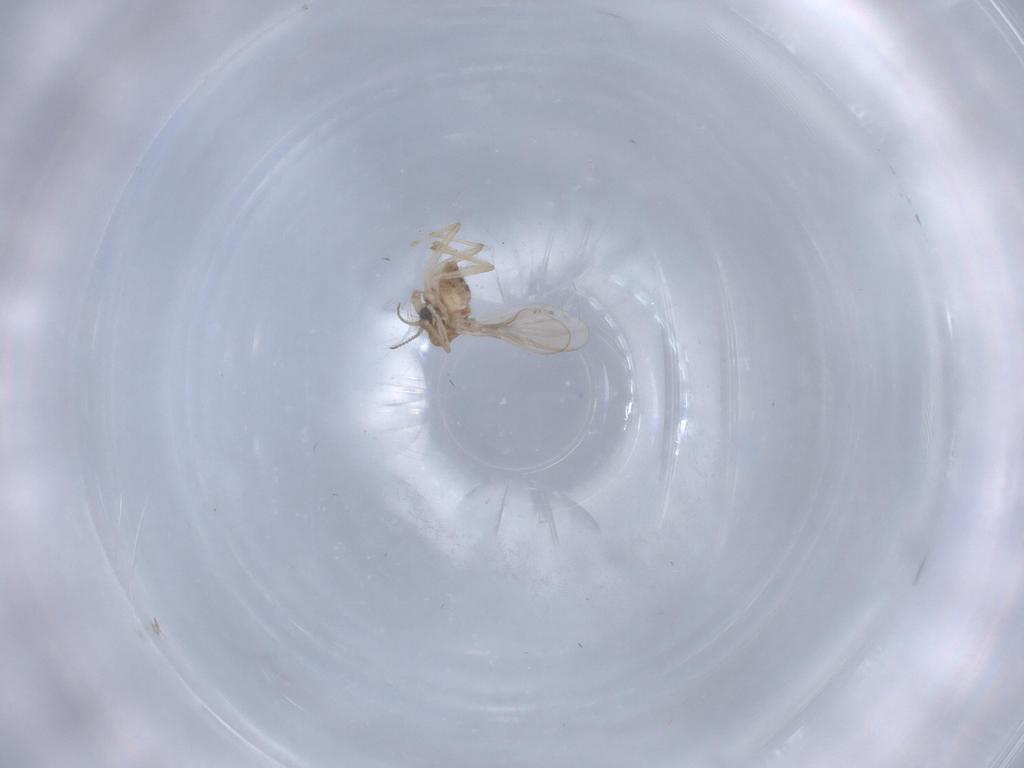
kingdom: Animalia
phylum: Arthropoda
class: Insecta
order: Diptera
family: Chironomidae
